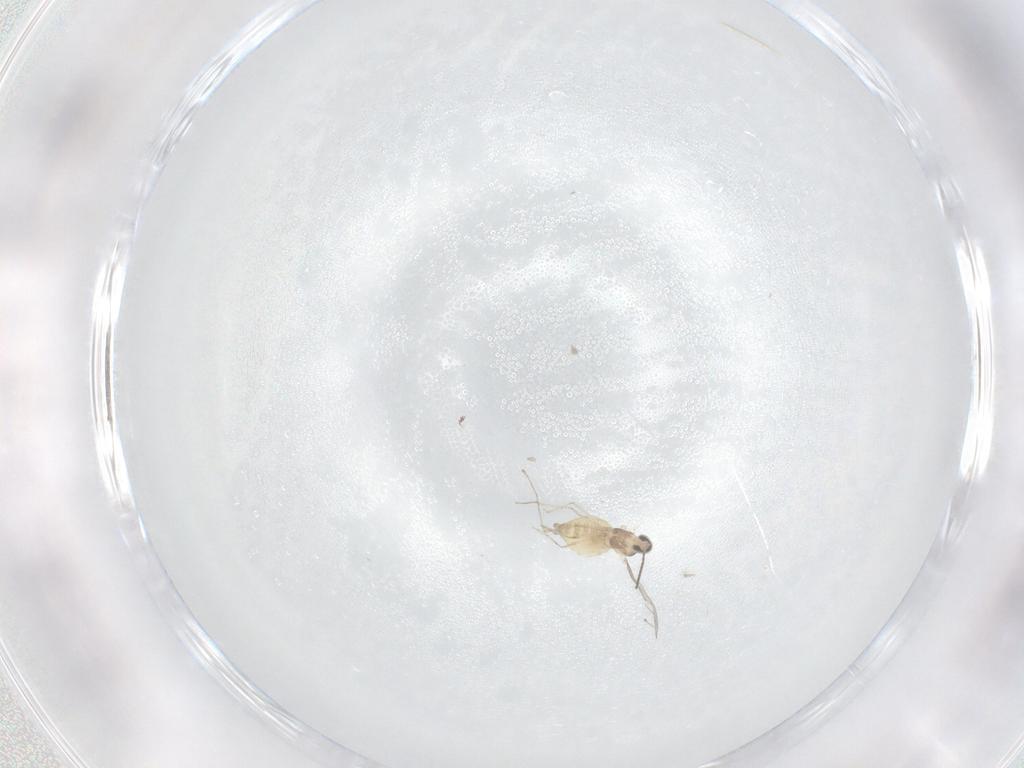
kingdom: Animalia
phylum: Arthropoda
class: Insecta
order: Diptera
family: Cecidomyiidae
